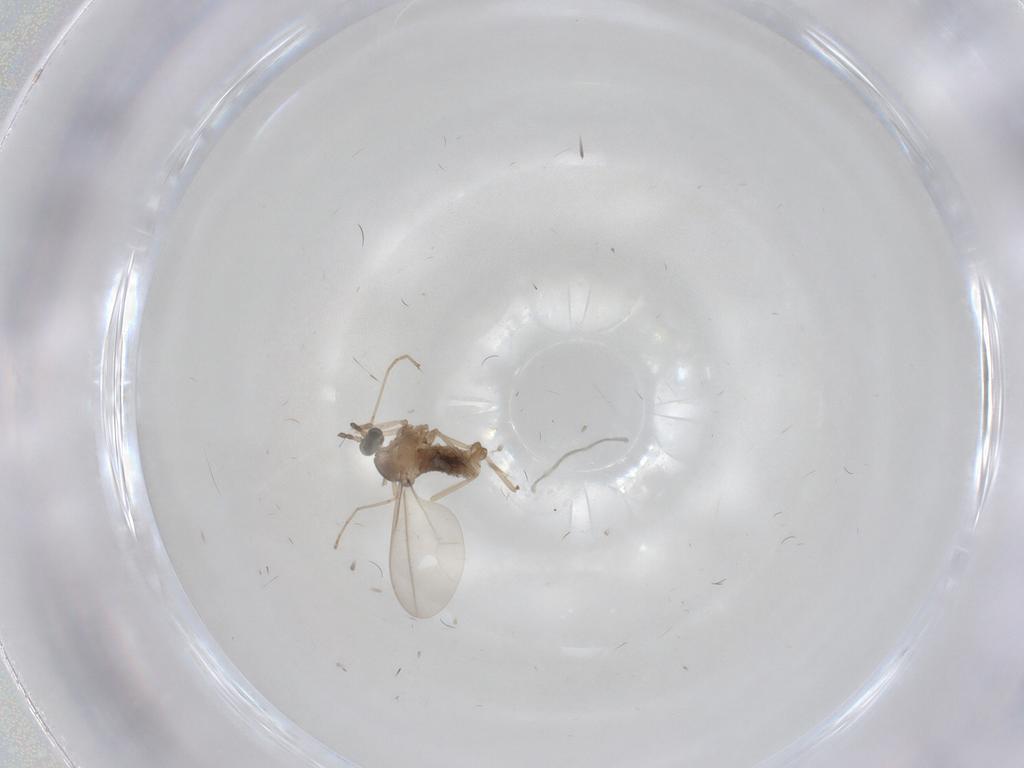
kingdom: Animalia
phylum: Arthropoda
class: Insecta
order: Diptera
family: Cecidomyiidae
